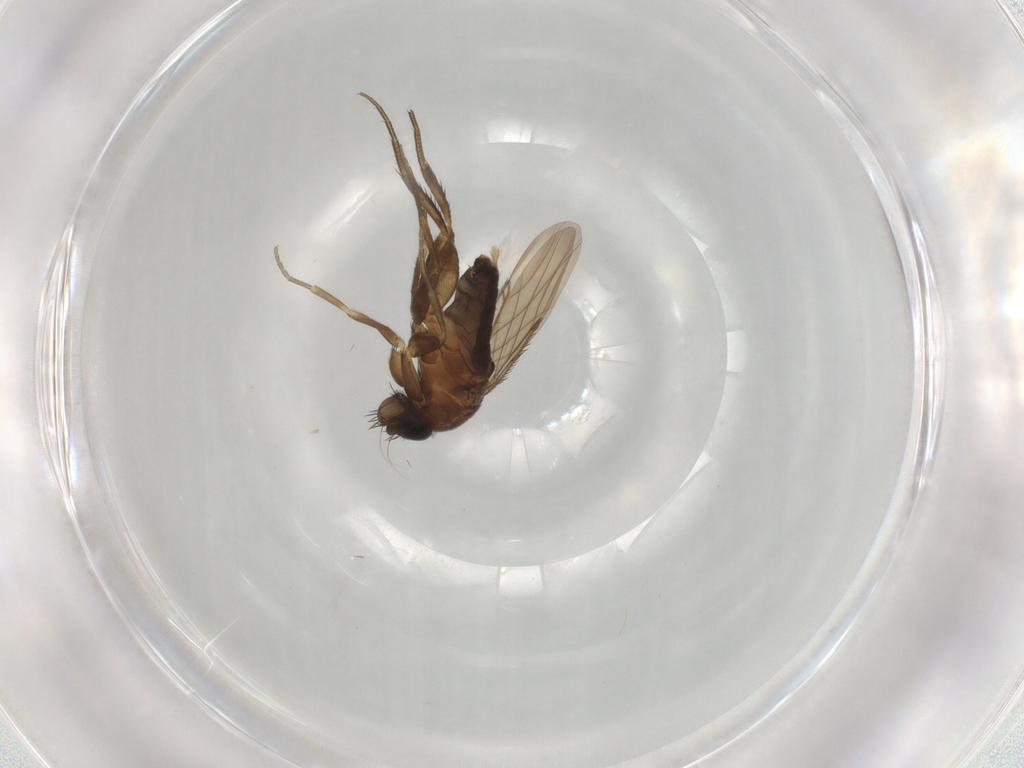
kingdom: Animalia
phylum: Arthropoda
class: Insecta
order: Diptera
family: Phoridae
